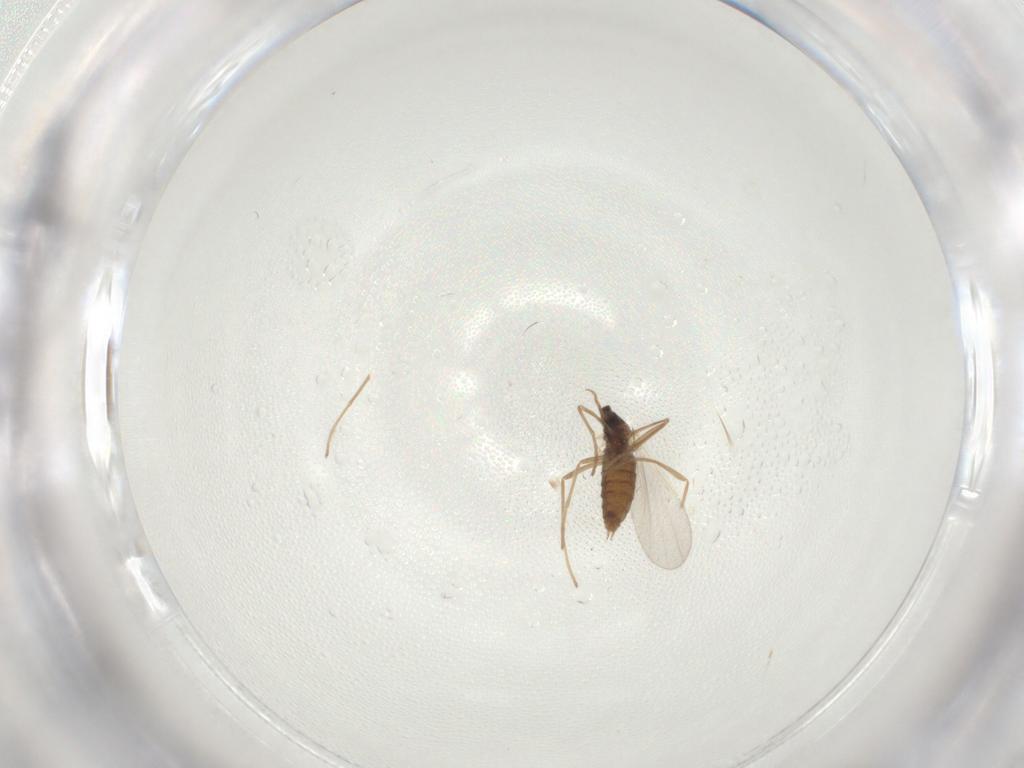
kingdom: Animalia
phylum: Arthropoda
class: Insecta
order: Diptera
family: Cecidomyiidae
